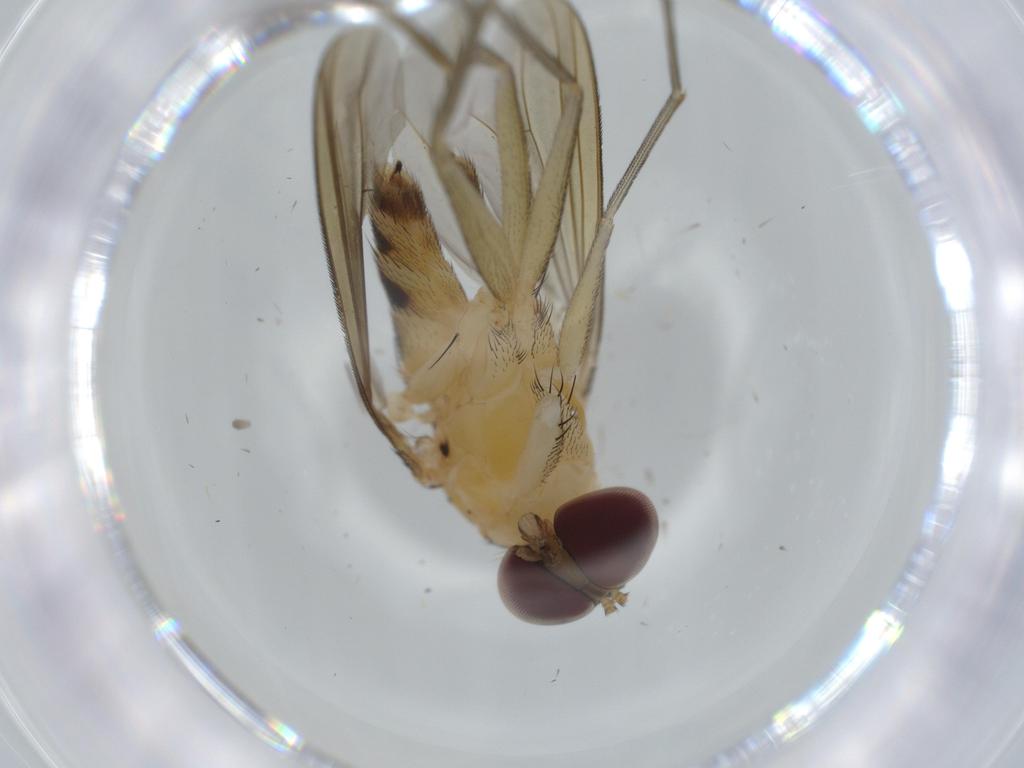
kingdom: Animalia
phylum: Arthropoda
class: Insecta
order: Diptera
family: Dolichopodidae
